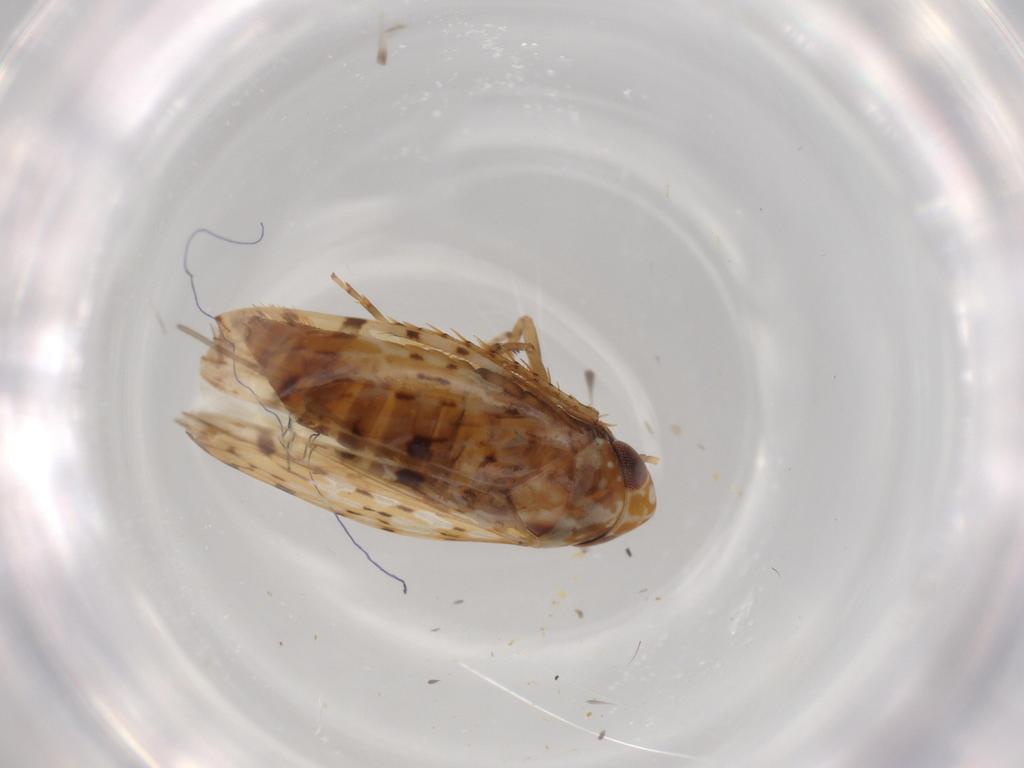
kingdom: Animalia
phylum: Arthropoda
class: Insecta
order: Hemiptera
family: Cicadellidae
